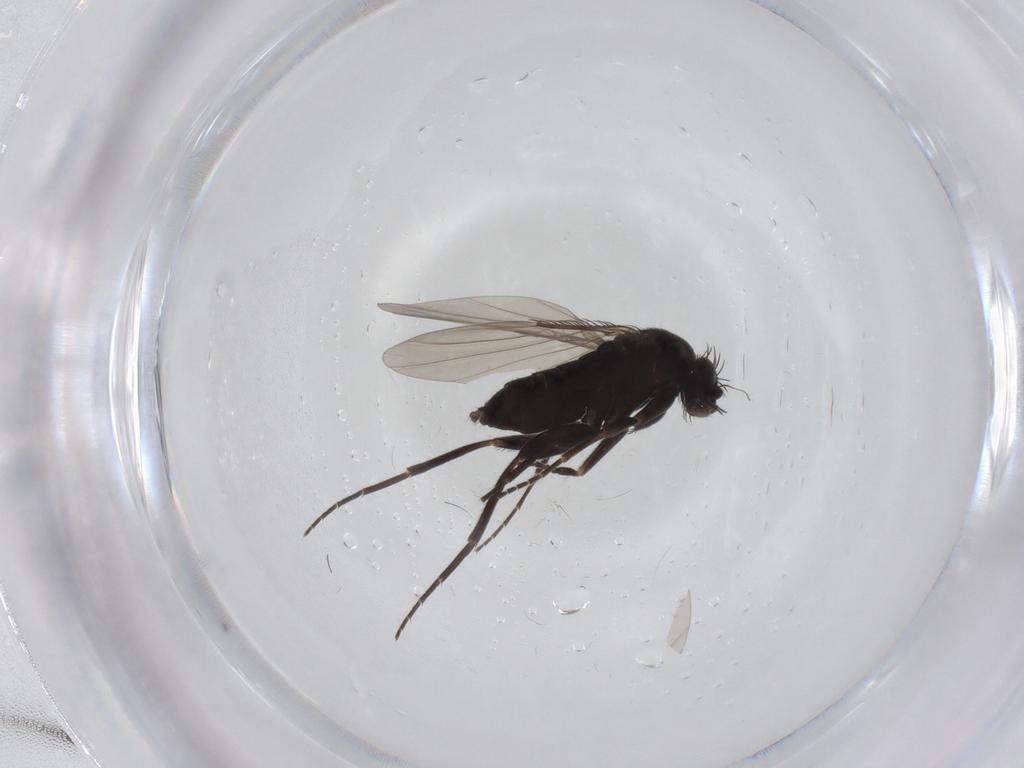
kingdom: Animalia
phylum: Arthropoda
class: Insecta
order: Diptera
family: Phoridae
